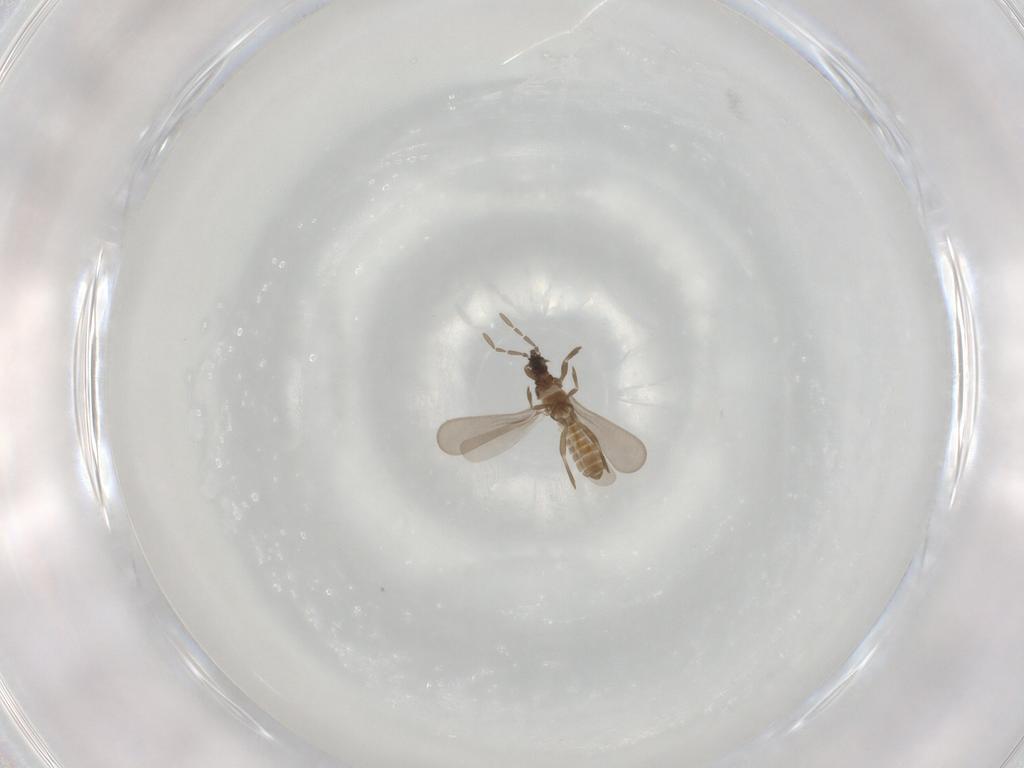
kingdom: Animalia
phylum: Arthropoda
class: Insecta
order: Hemiptera
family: Enicocephalidae
